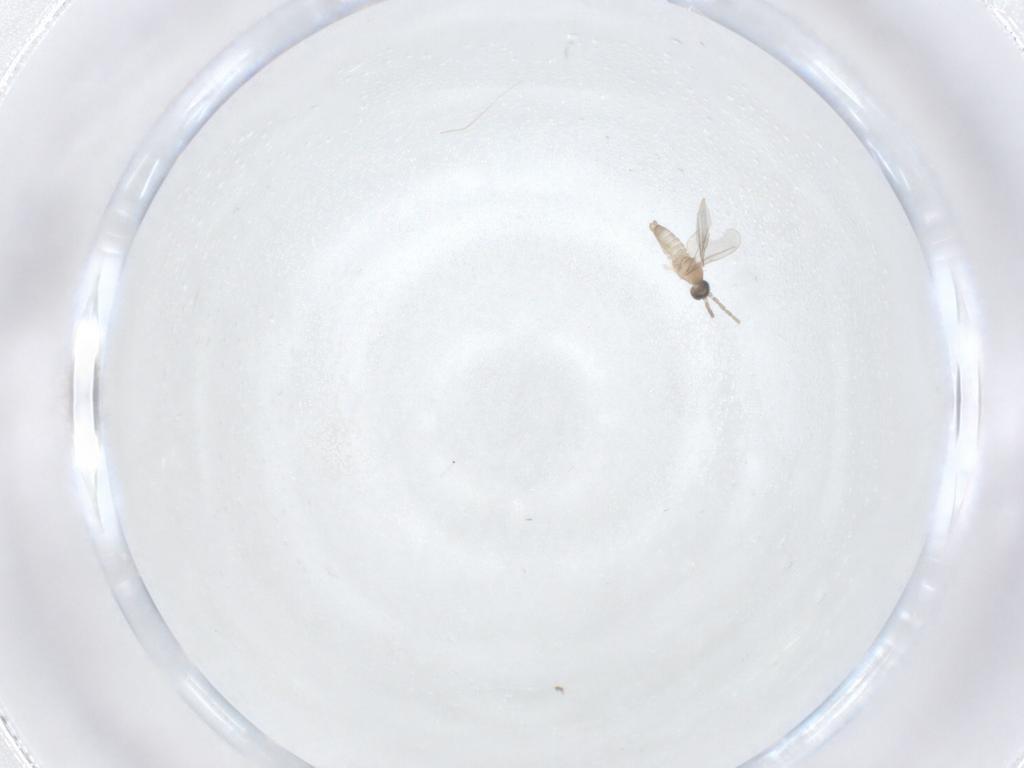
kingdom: Animalia
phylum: Arthropoda
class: Insecta
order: Diptera
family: Cecidomyiidae
